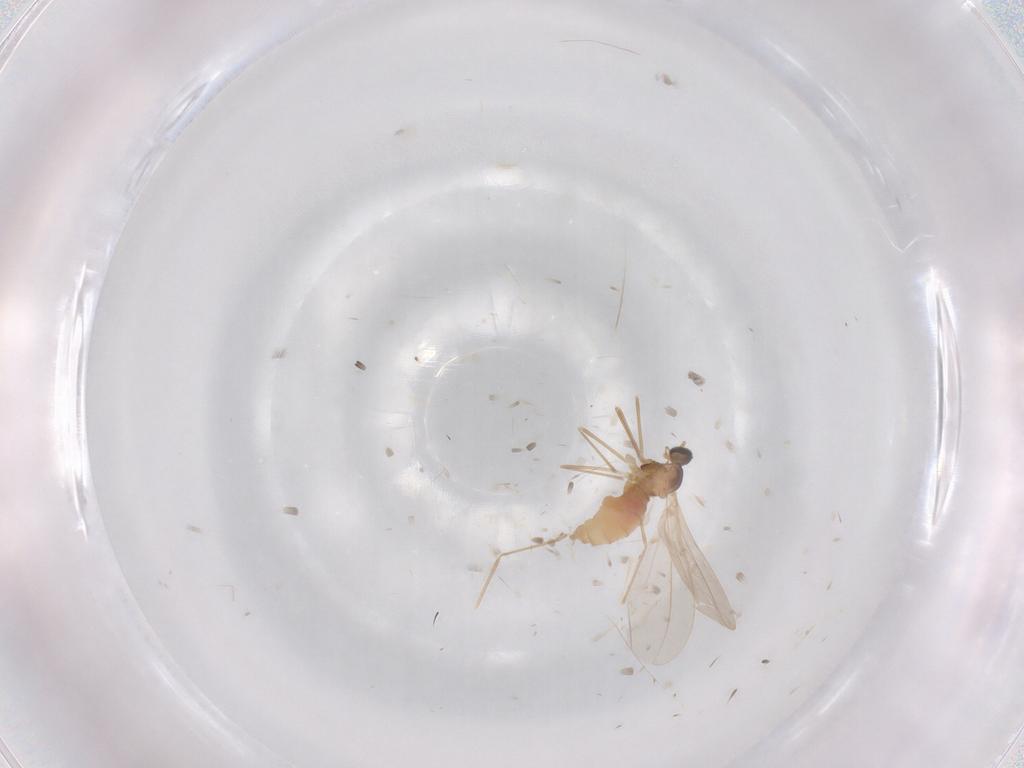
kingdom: Animalia
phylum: Arthropoda
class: Insecta
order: Diptera
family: Cecidomyiidae
